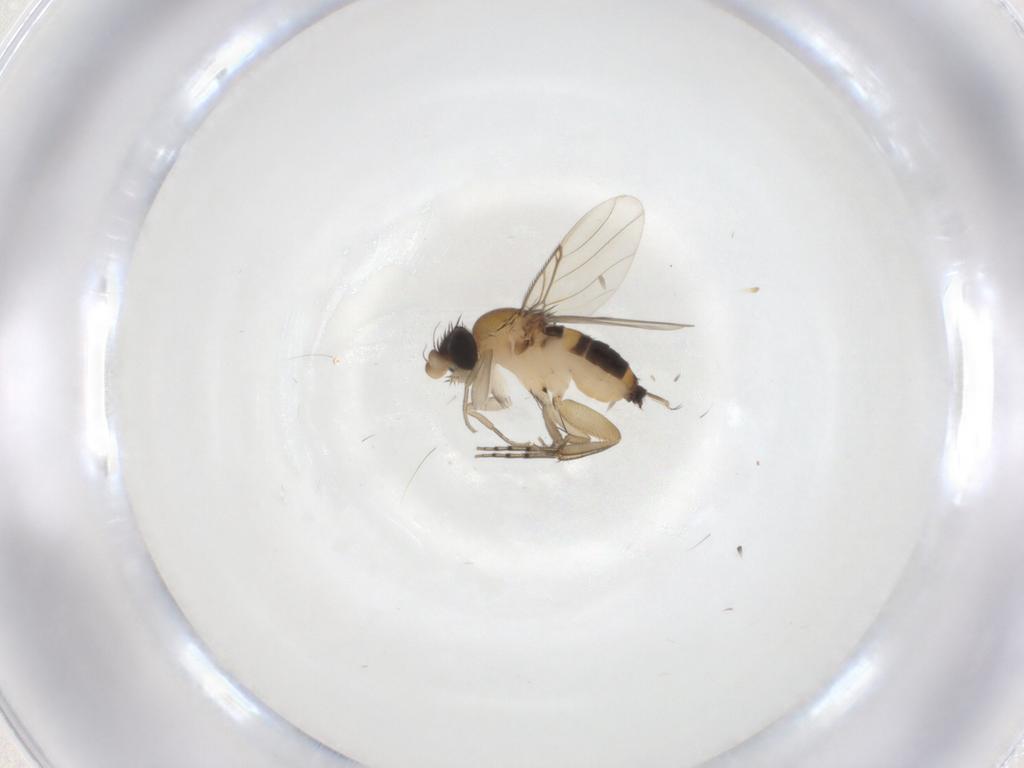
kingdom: Animalia
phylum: Arthropoda
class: Insecta
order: Diptera
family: Phoridae
